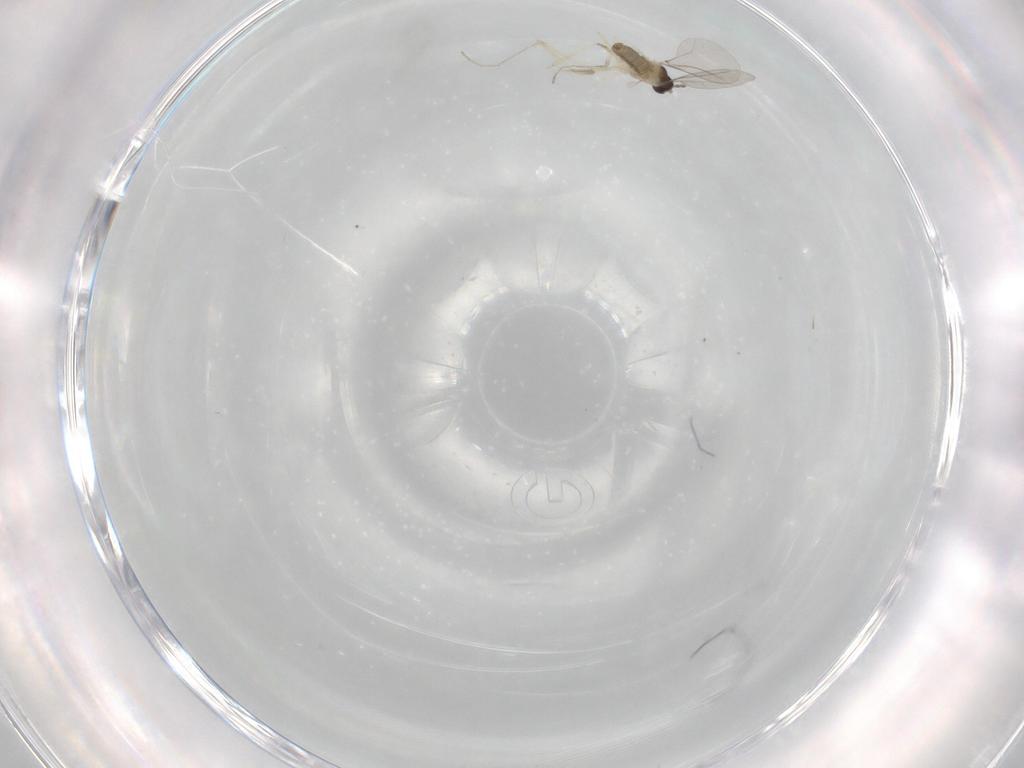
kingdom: Animalia
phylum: Arthropoda
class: Insecta
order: Diptera
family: Cecidomyiidae
